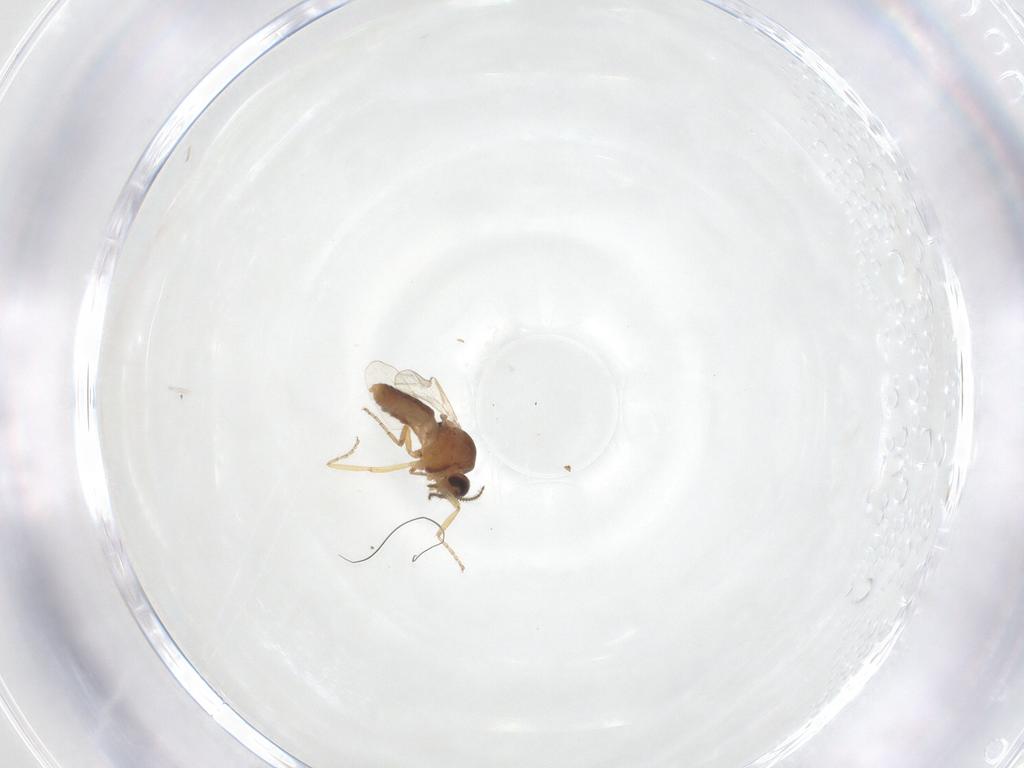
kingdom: Animalia
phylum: Arthropoda
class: Insecta
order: Diptera
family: Ceratopogonidae
